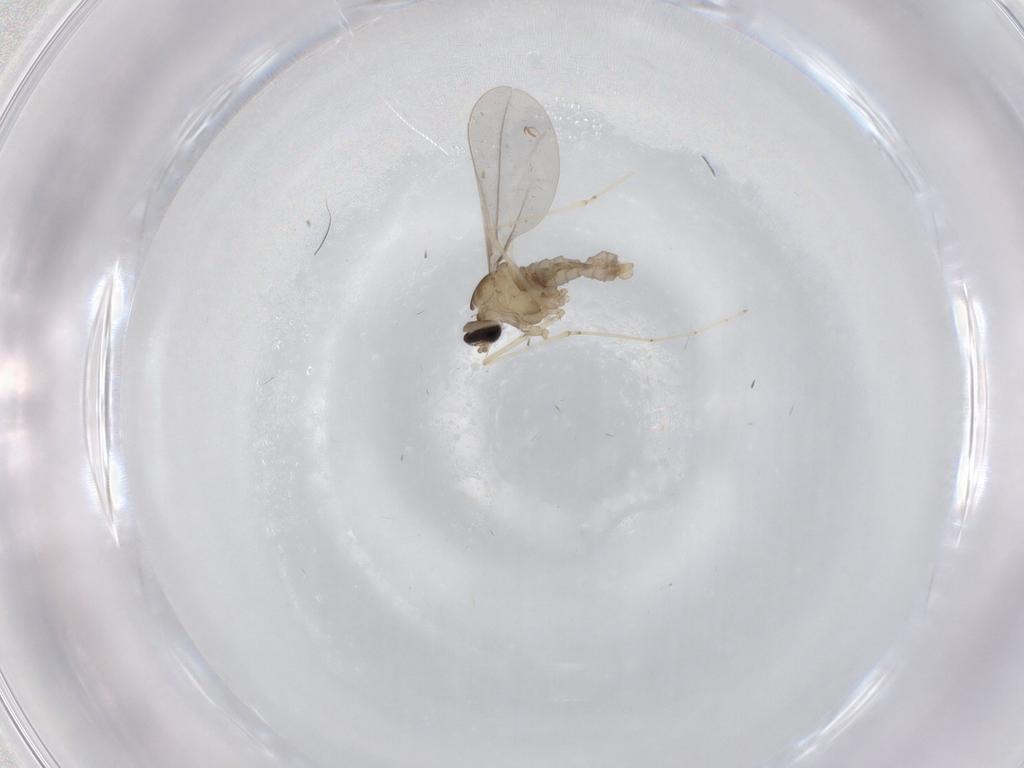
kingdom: Animalia
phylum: Arthropoda
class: Insecta
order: Diptera
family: Cecidomyiidae
